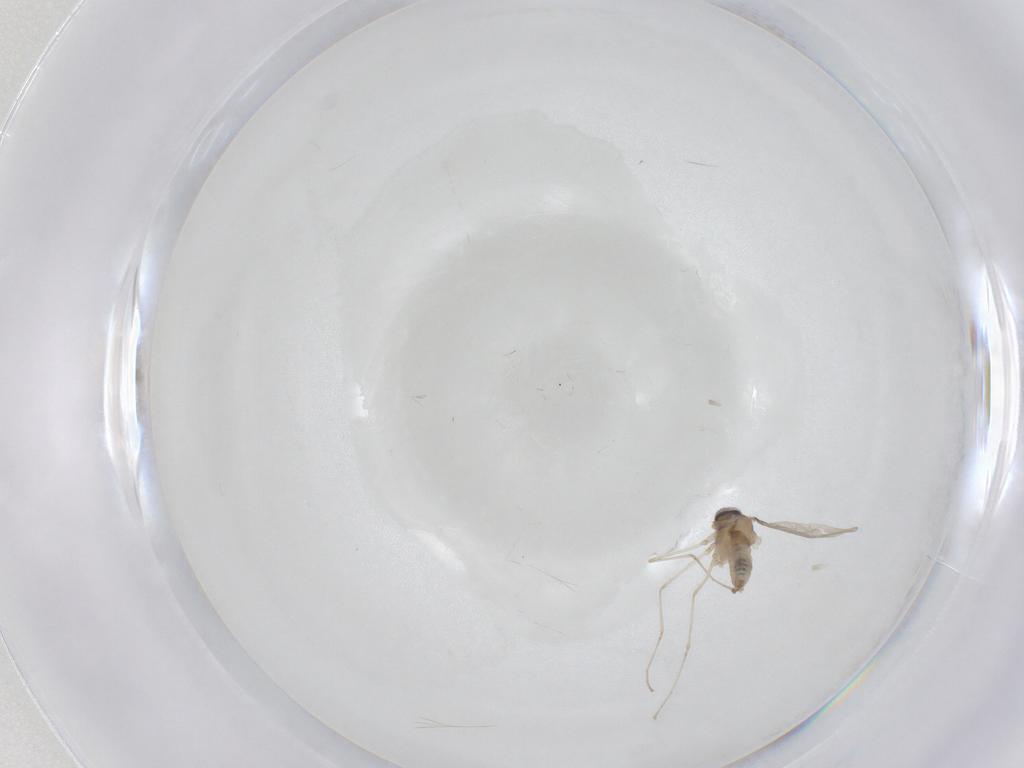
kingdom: Animalia
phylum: Arthropoda
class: Insecta
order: Diptera
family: Cecidomyiidae
